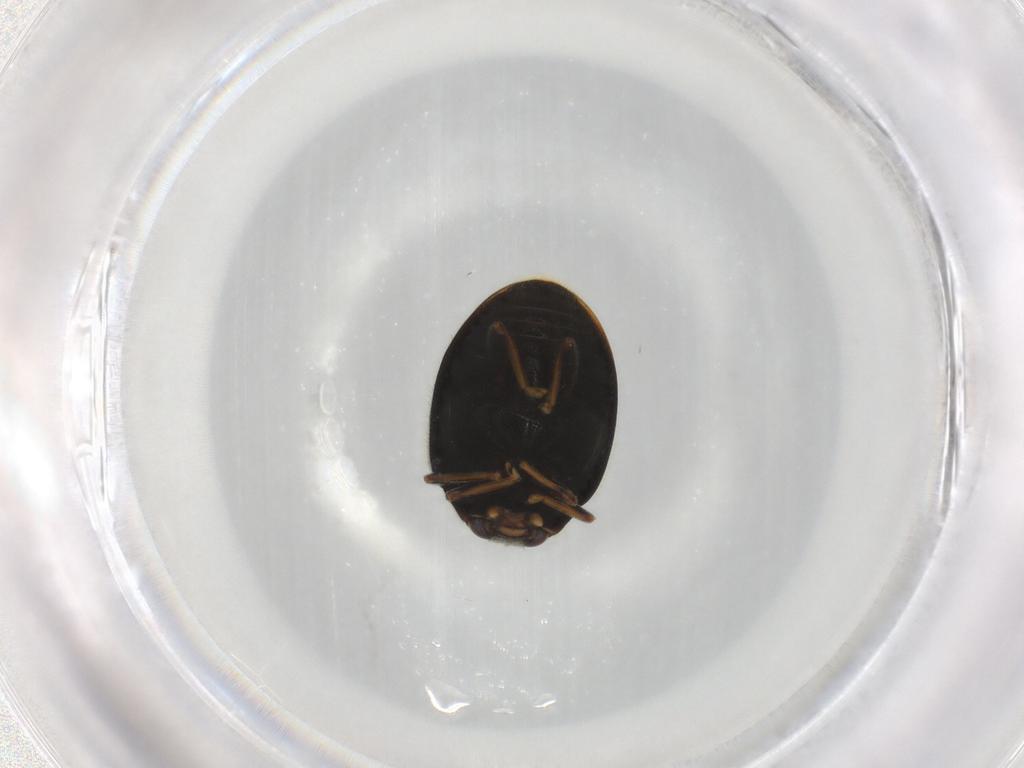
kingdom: Animalia
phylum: Arthropoda
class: Insecta
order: Coleoptera
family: Coccinellidae
